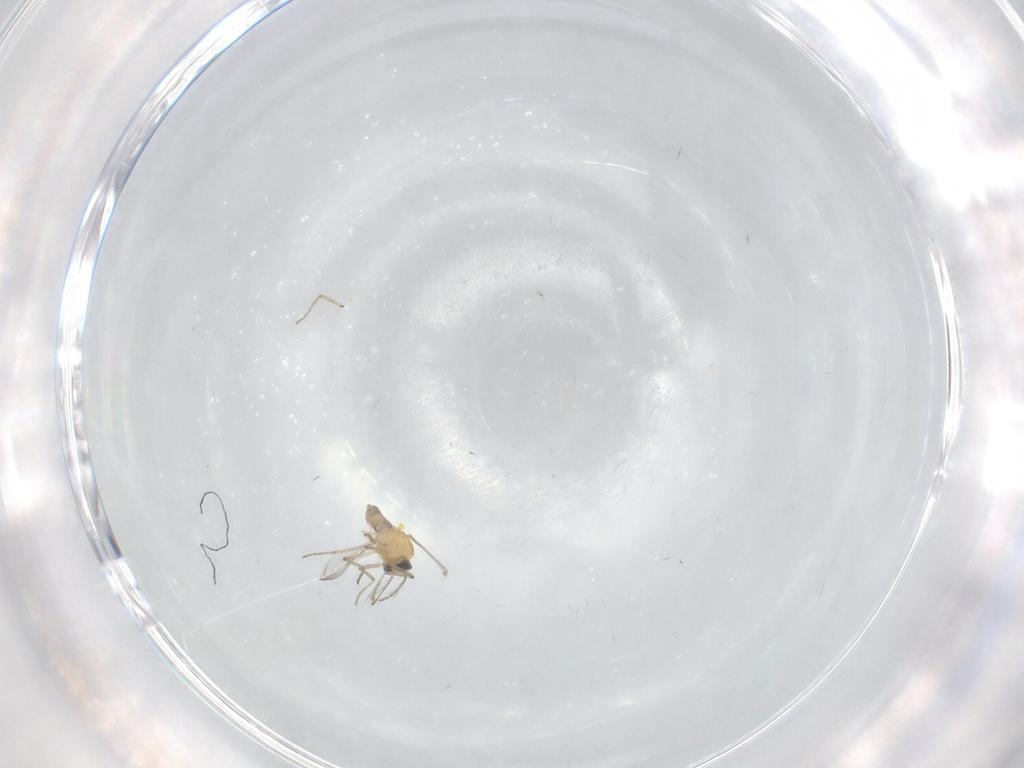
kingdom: Animalia
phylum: Arthropoda
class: Insecta
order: Diptera
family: Ceratopogonidae
